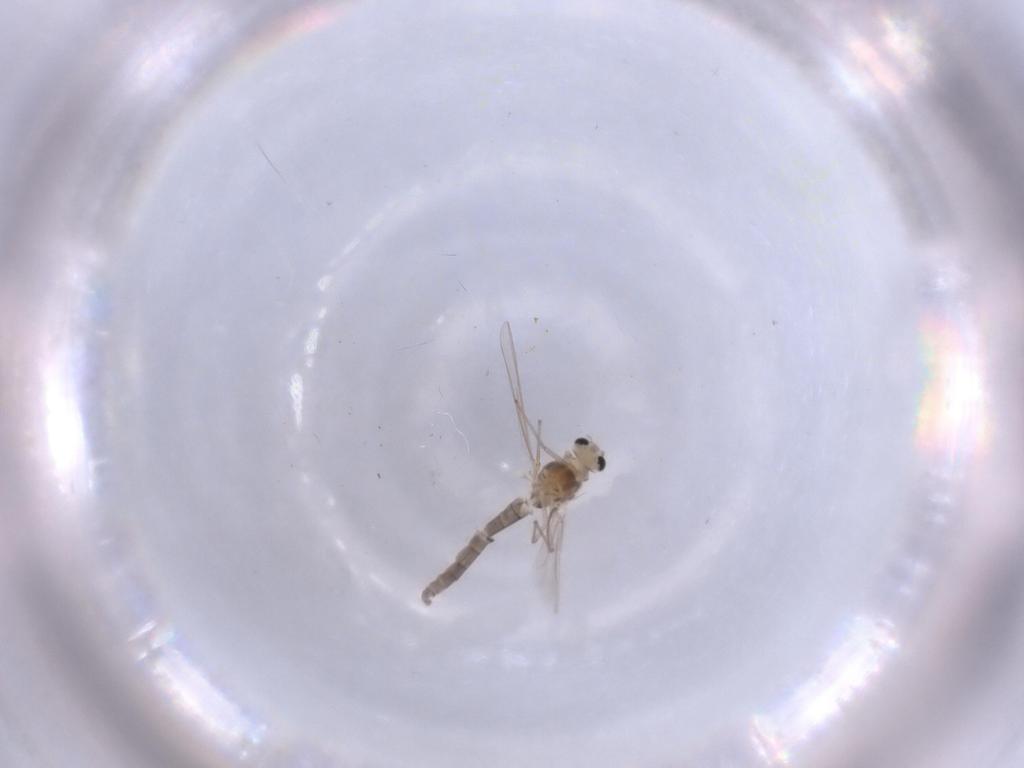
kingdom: Animalia
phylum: Arthropoda
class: Insecta
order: Diptera
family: Chironomidae
